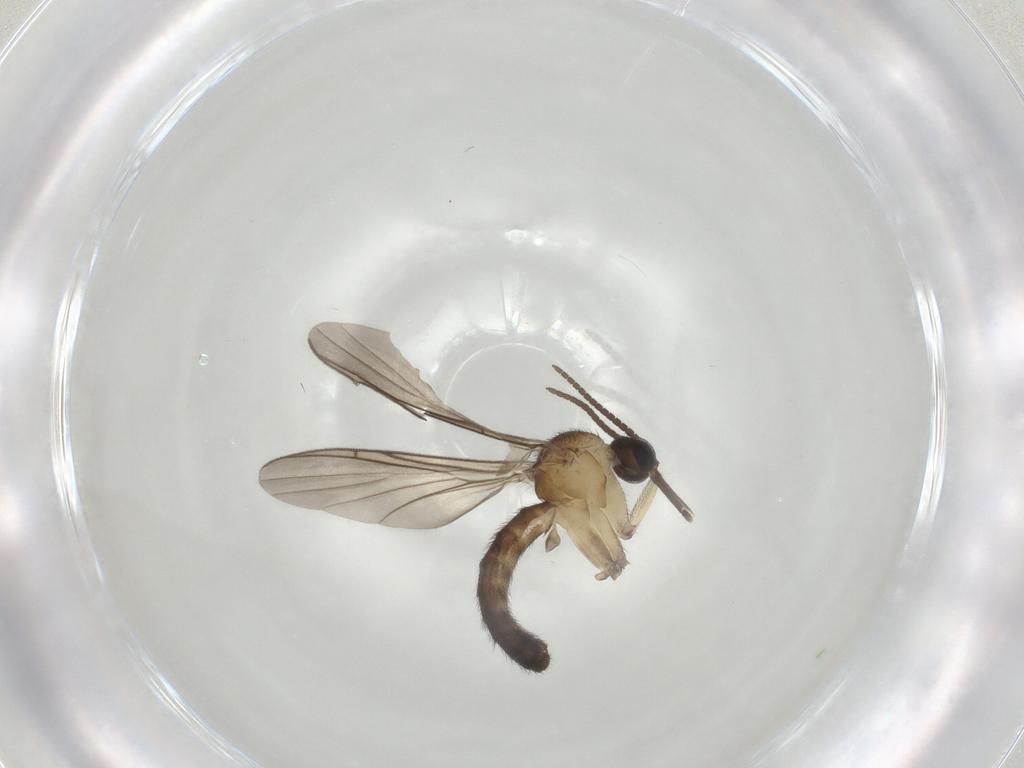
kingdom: Animalia
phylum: Arthropoda
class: Insecta
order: Diptera
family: Keroplatidae
